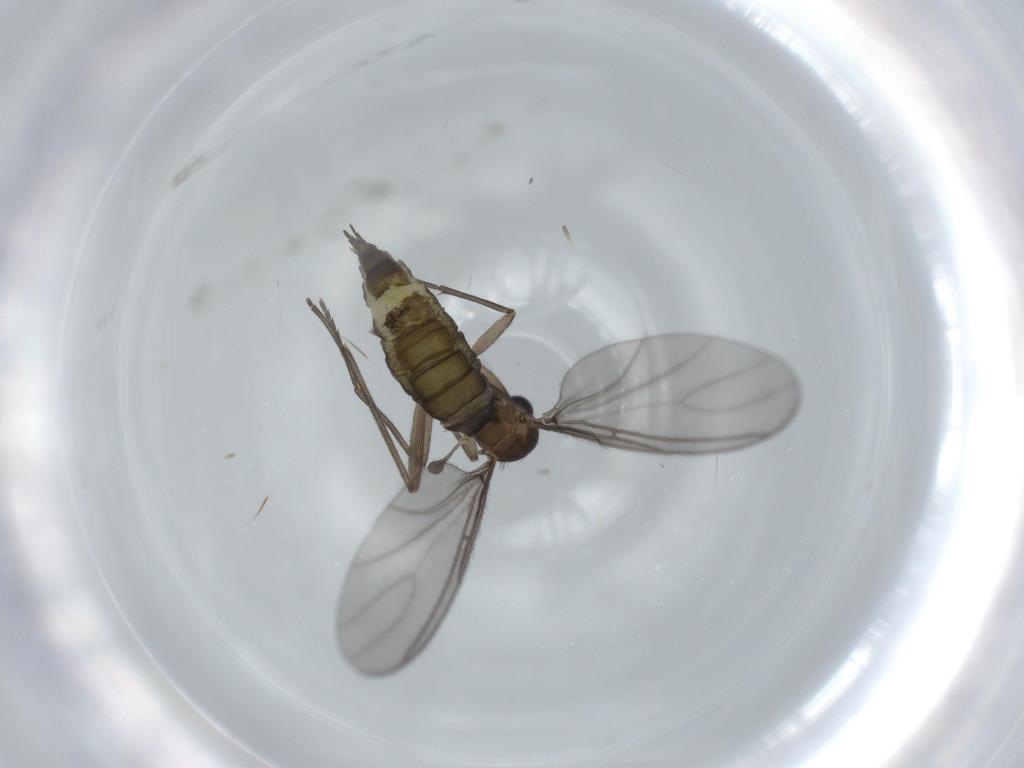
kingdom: Animalia
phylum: Arthropoda
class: Insecta
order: Diptera
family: Sciaridae
